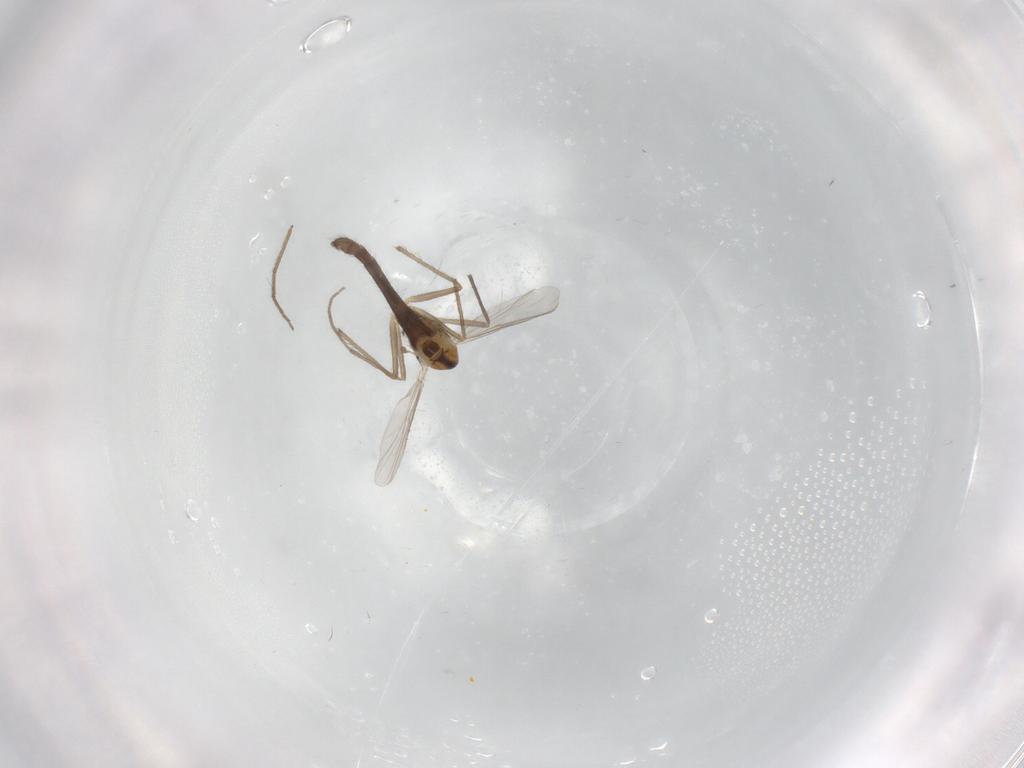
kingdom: Animalia
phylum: Arthropoda
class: Insecta
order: Diptera
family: Chironomidae
